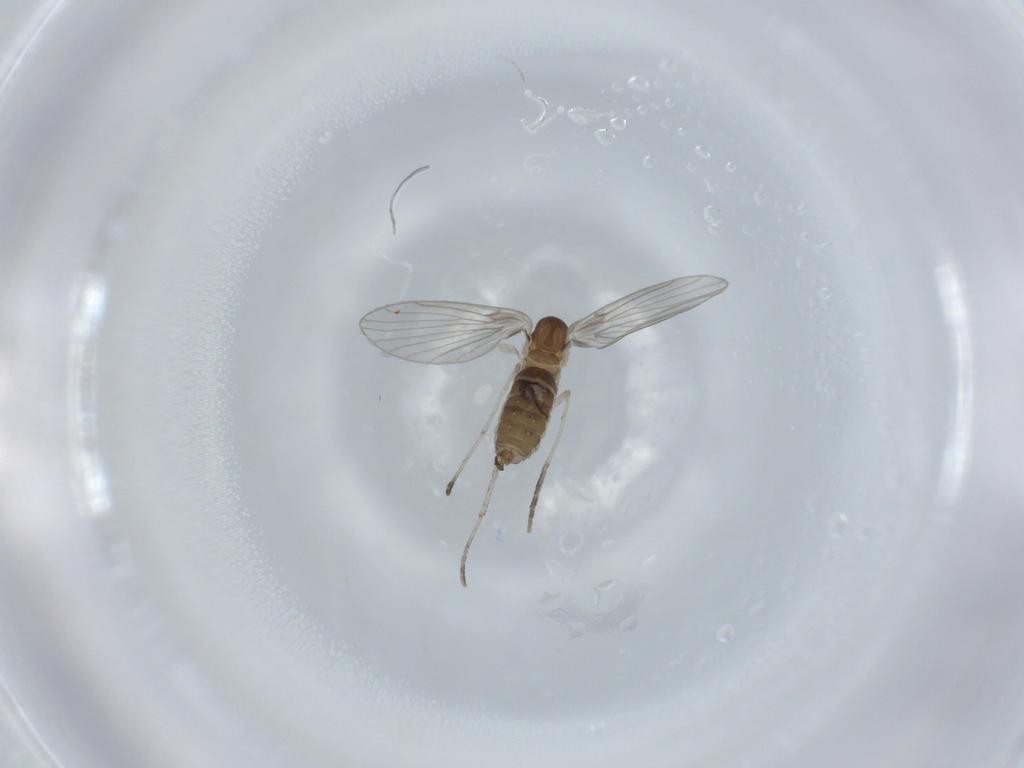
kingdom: Animalia
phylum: Arthropoda
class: Insecta
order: Diptera
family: Psychodidae
